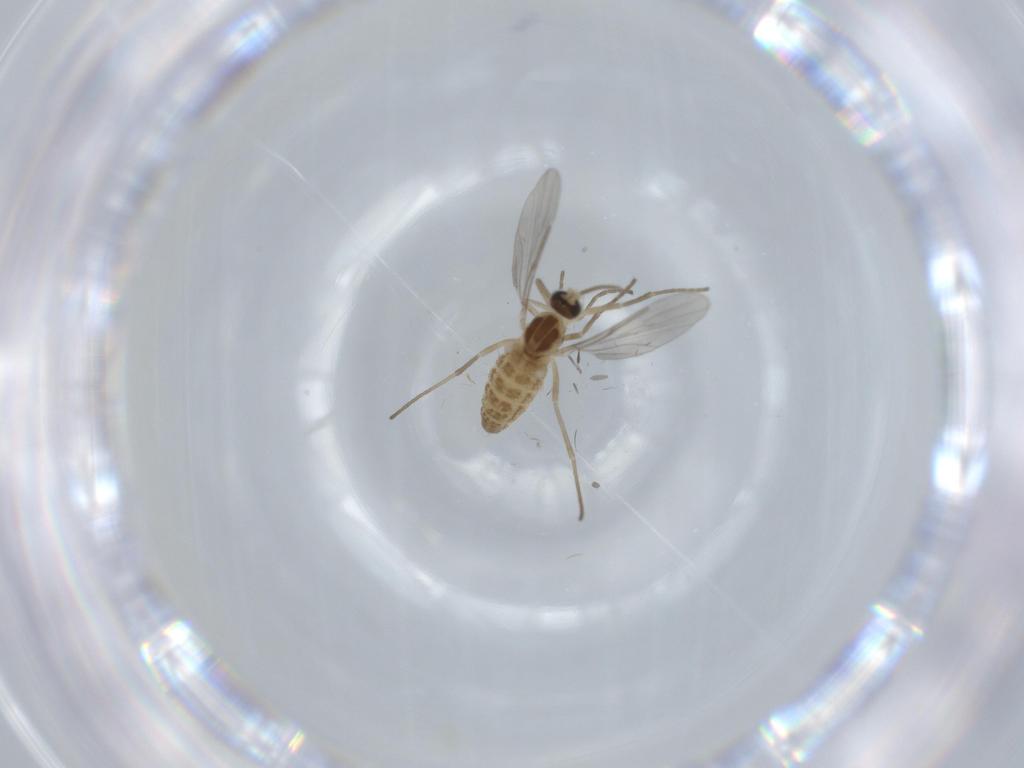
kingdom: Animalia
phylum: Arthropoda
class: Insecta
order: Diptera
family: Cecidomyiidae
